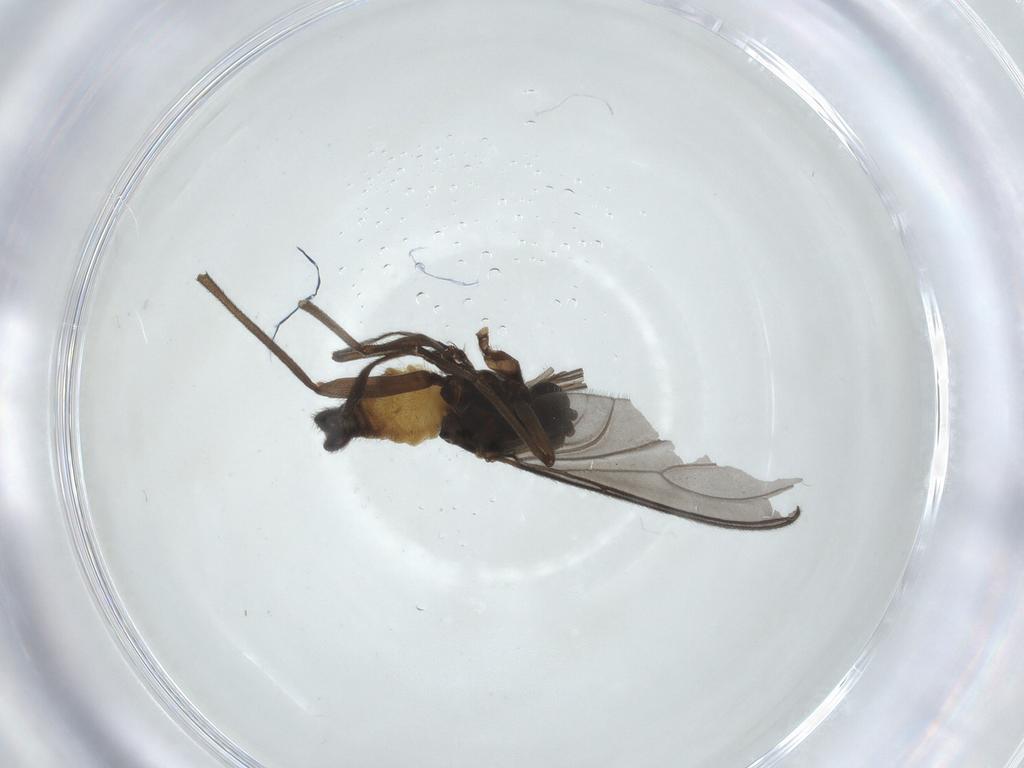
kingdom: Animalia
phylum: Arthropoda
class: Insecta
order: Diptera
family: Sciaridae
